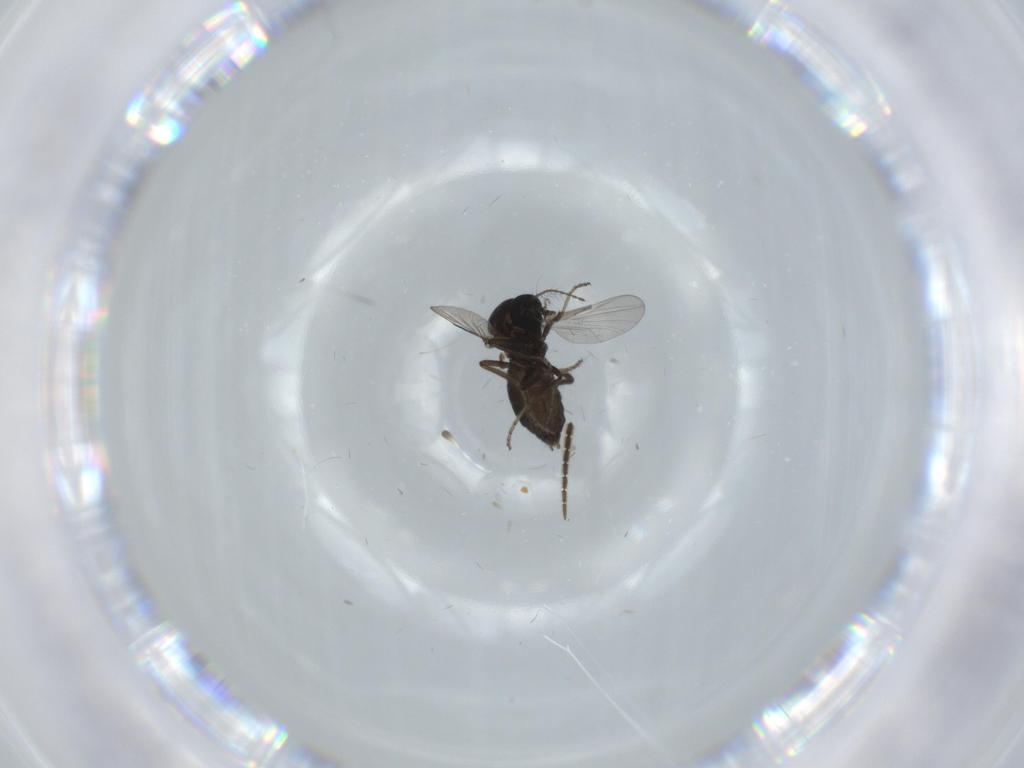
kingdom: Animalia
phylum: Arthropoda
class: Insecta
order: Diptera
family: Ceratopogonidae
